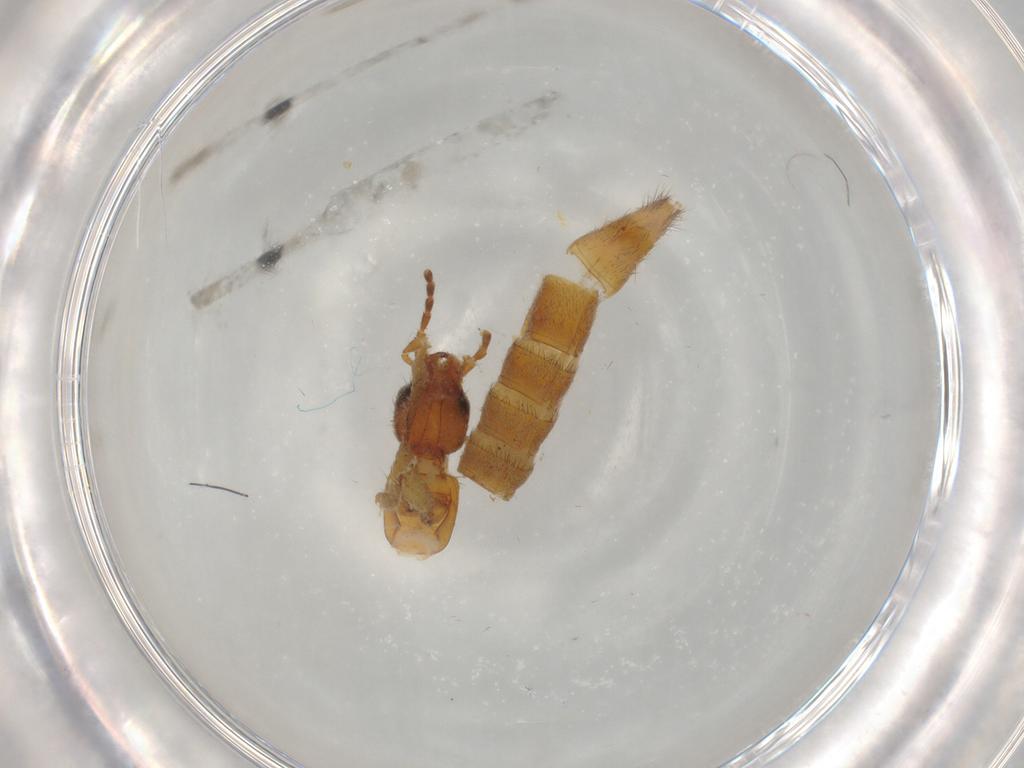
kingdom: Animalia
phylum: Arthropoda
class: Insecta
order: Coleoptera
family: Staphylinidae
